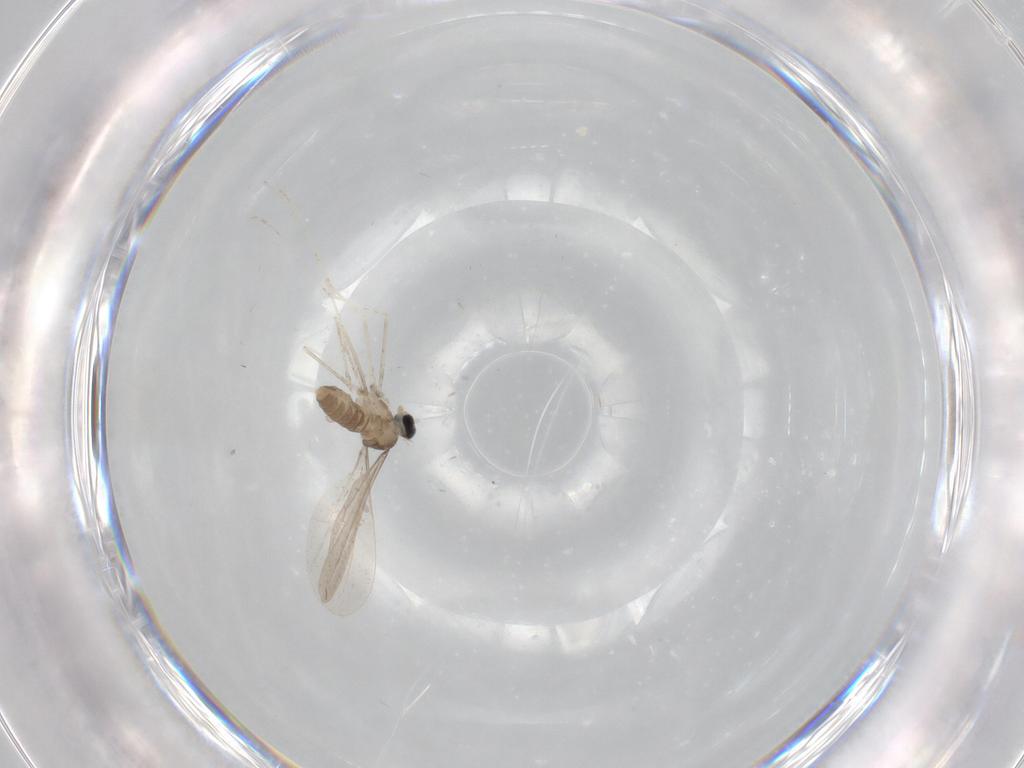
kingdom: Animalia
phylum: Arthropoda
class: Insecta
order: Diptera
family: Cecidomyiidae
